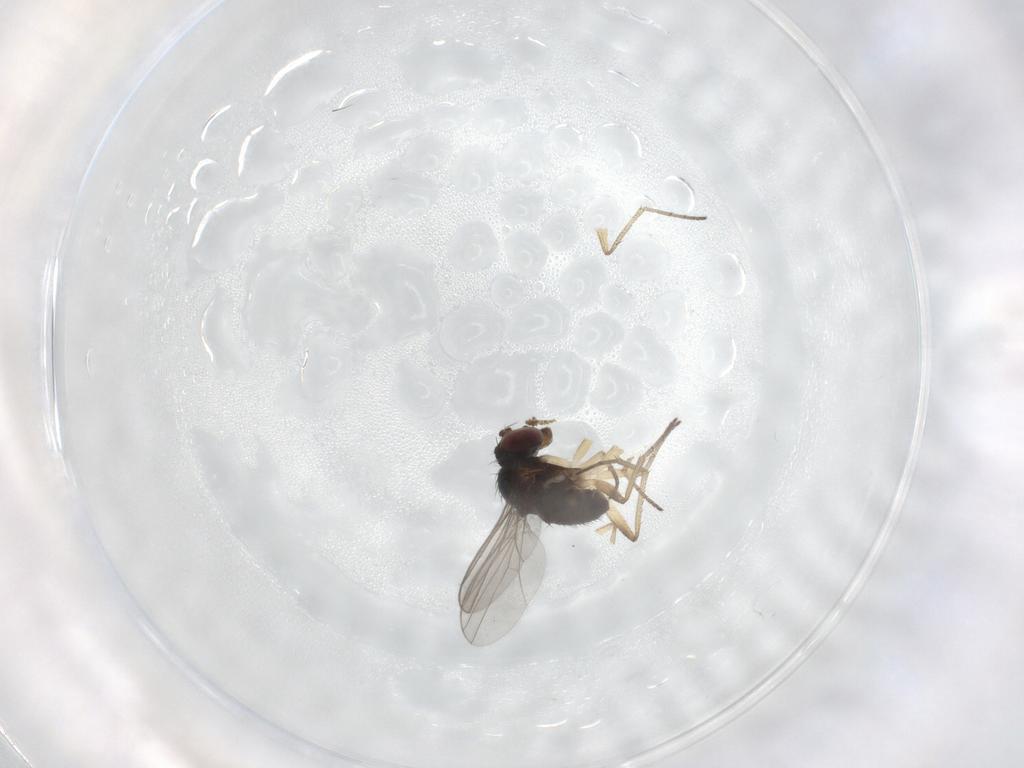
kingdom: Animalia
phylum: Arthropoda
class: Insecta
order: Diptera
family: Dolichopodidae
